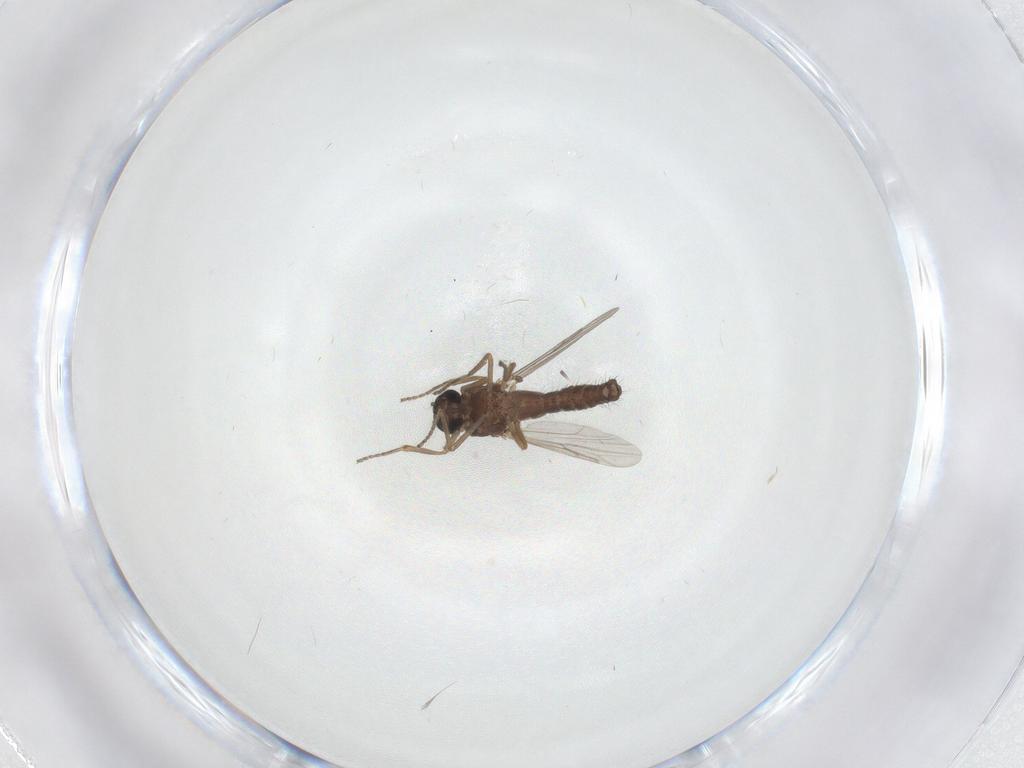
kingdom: Animalia
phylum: Arthropoda
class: Insecta
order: Diptera
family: Ceratopogonidae
